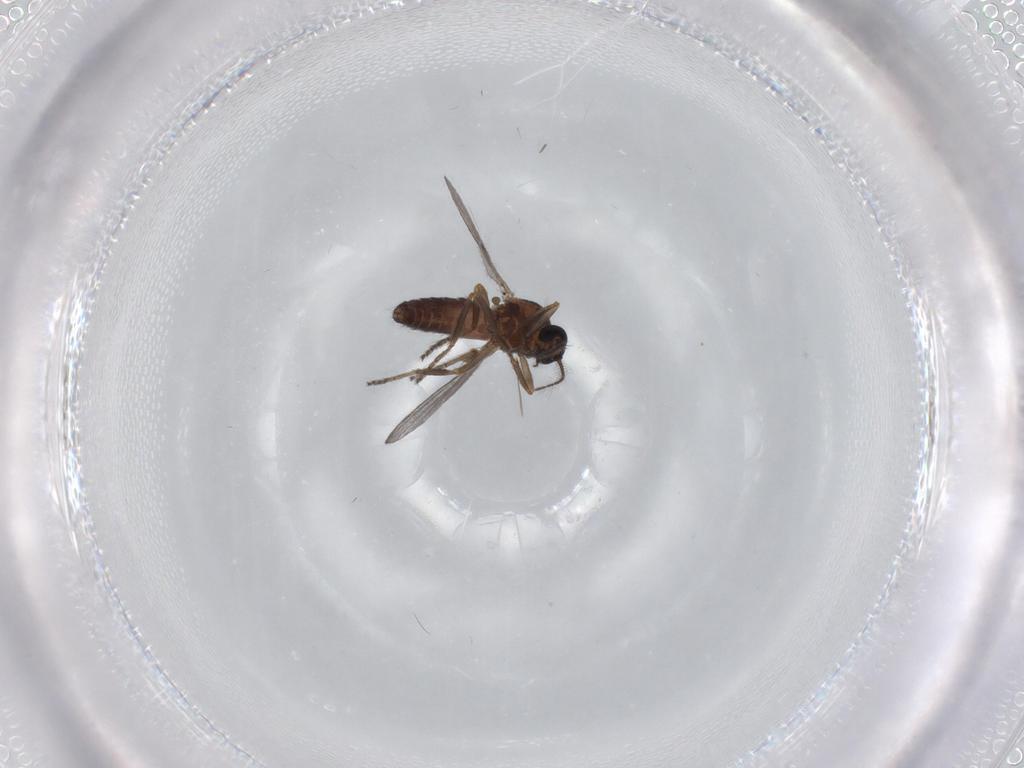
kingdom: Animalia
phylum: Arthropoda
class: Insecta
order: Diptera
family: Chironomidae
